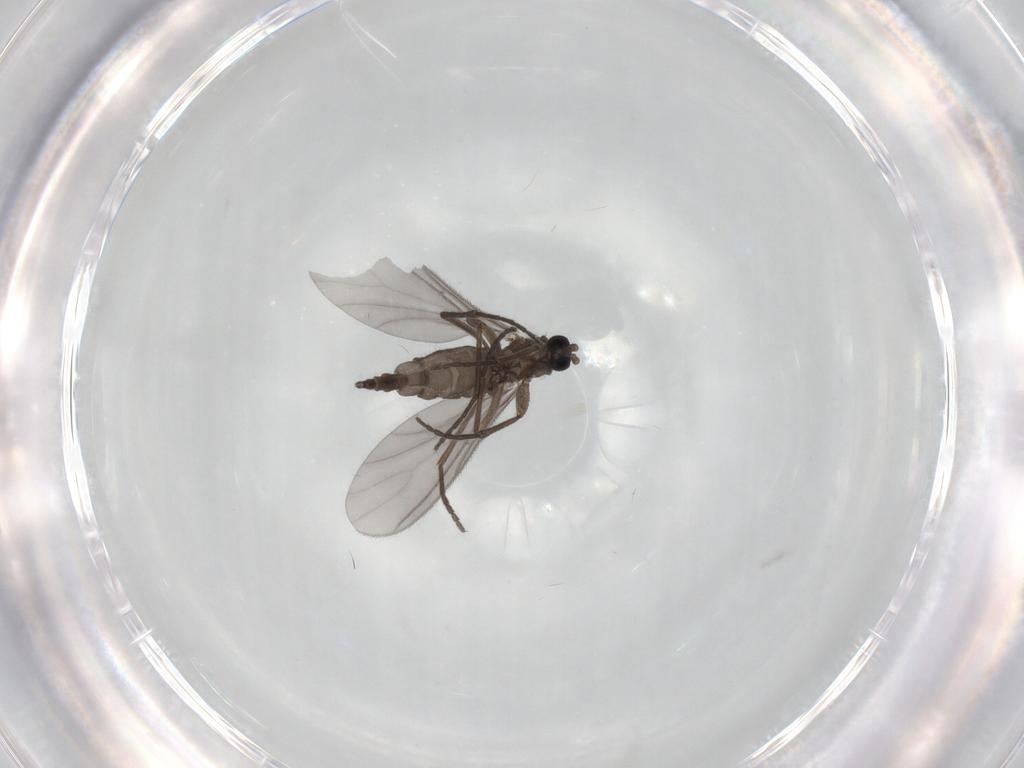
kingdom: Animalia
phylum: Arthropoda
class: Insecta
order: Diptera
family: Sciaridae
